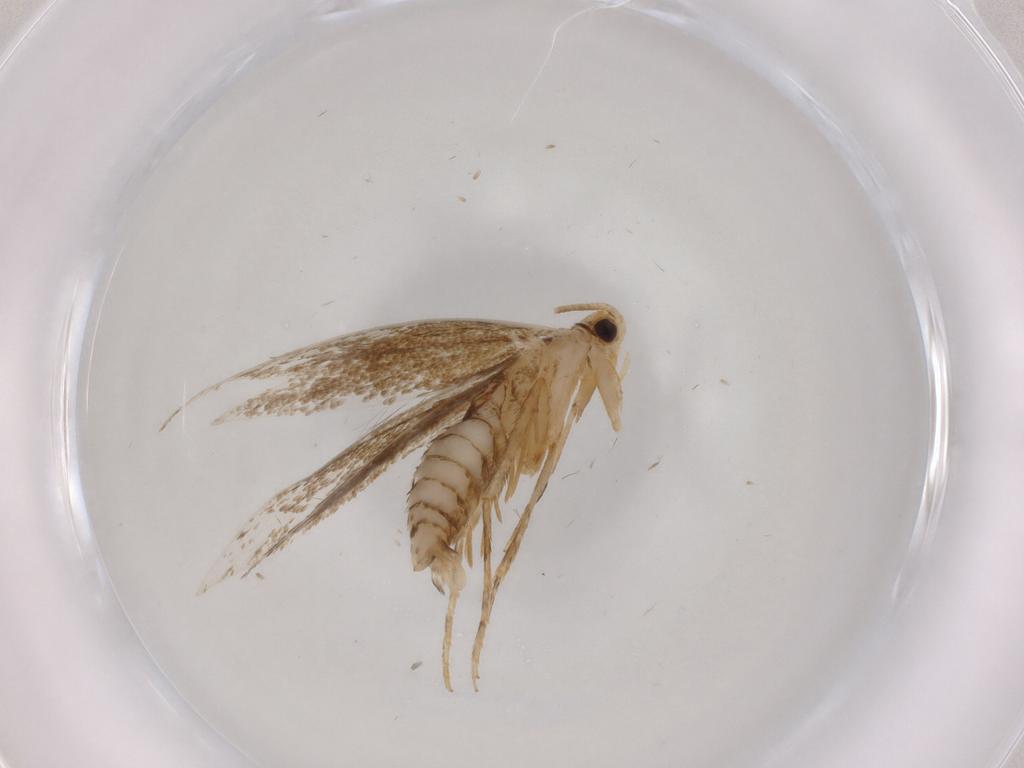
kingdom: Animalia
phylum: Arthropoda
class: Insecta
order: Lepidoptera
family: Tineidae
